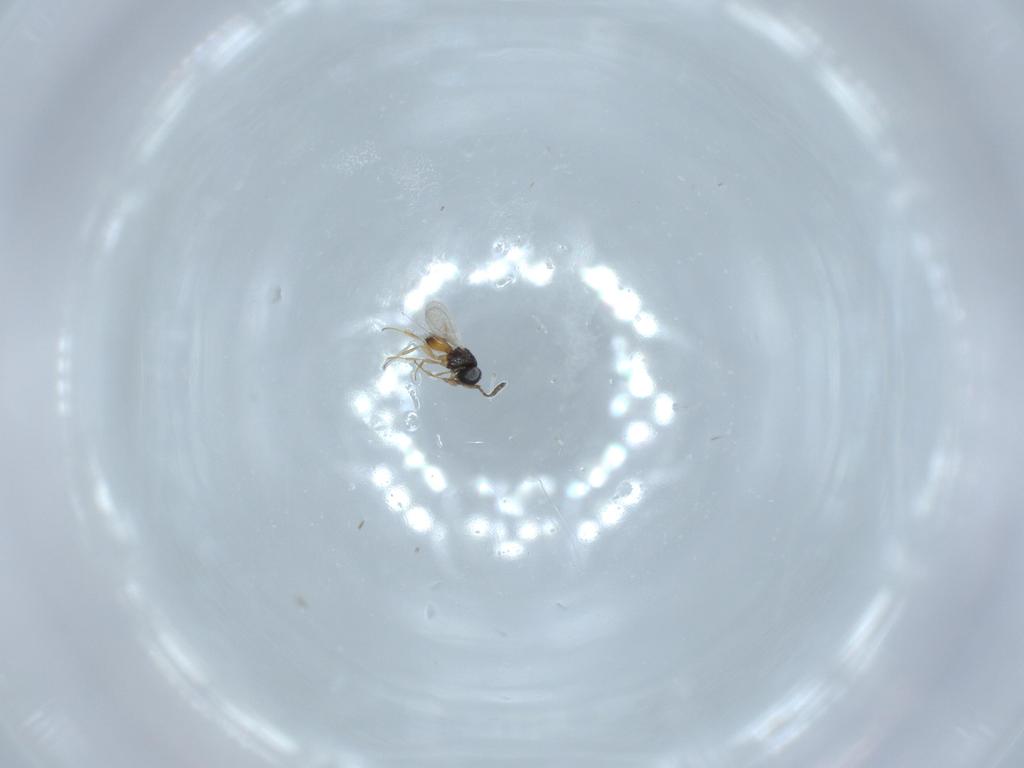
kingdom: Animalia
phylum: Arthropoda
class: Insecta
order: Hymenoptera
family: Scelionidae
